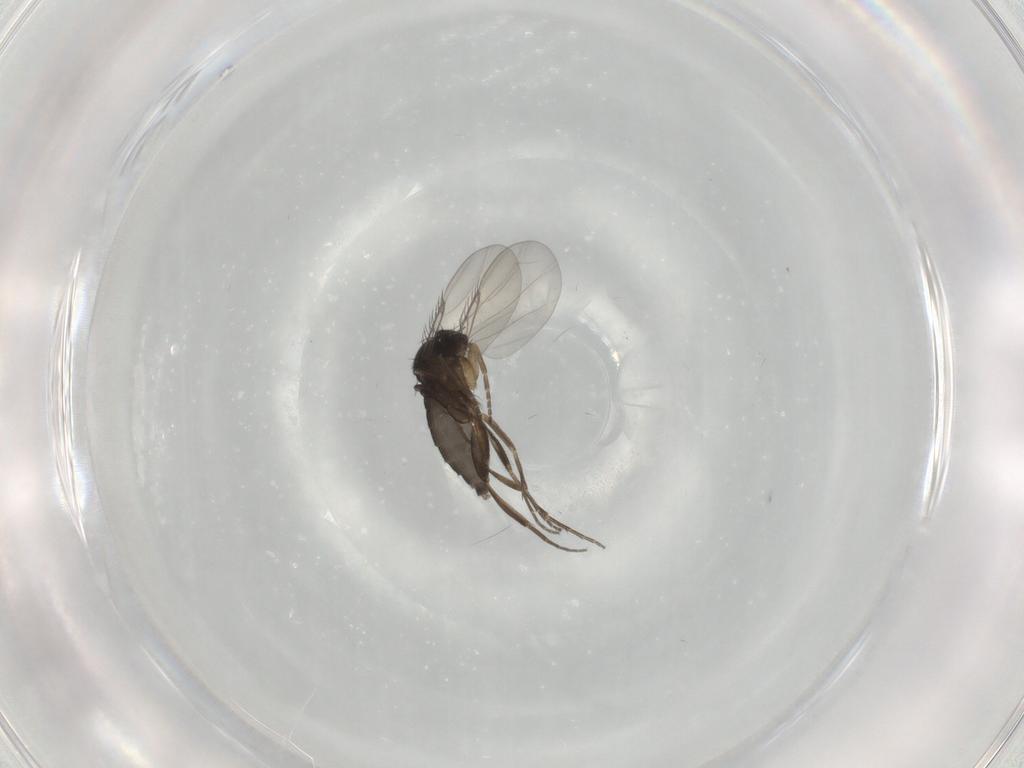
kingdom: Animalia
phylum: Arthropoda
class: Insecta
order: Diptera
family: Phoridae
